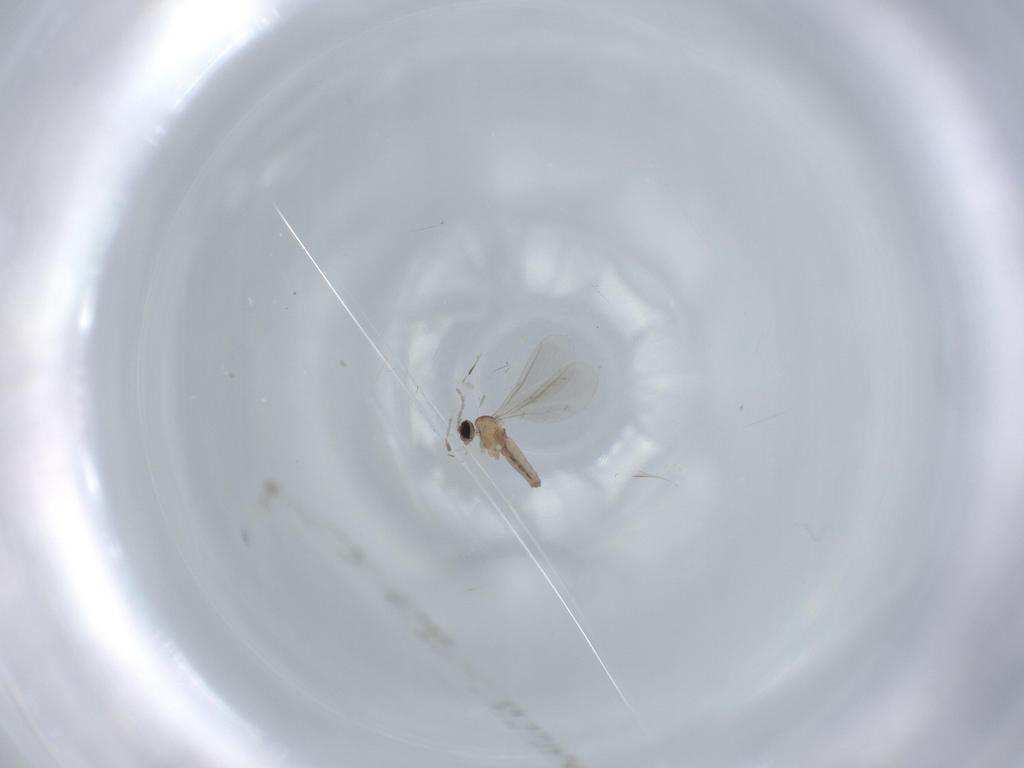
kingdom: Animalia
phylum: Arthropoda
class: Insecta
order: Diptera
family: Cecidomyiidae
